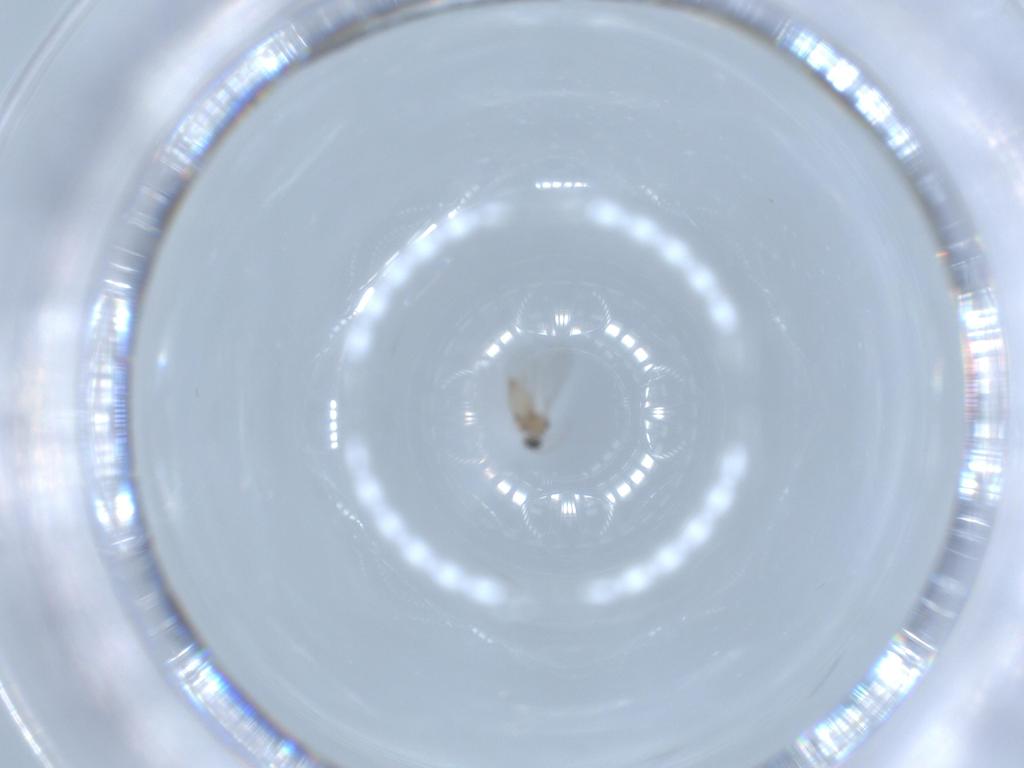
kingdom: Animalia
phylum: Arthropoda
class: Insecta
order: Diptera
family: Cecidomyiidae
